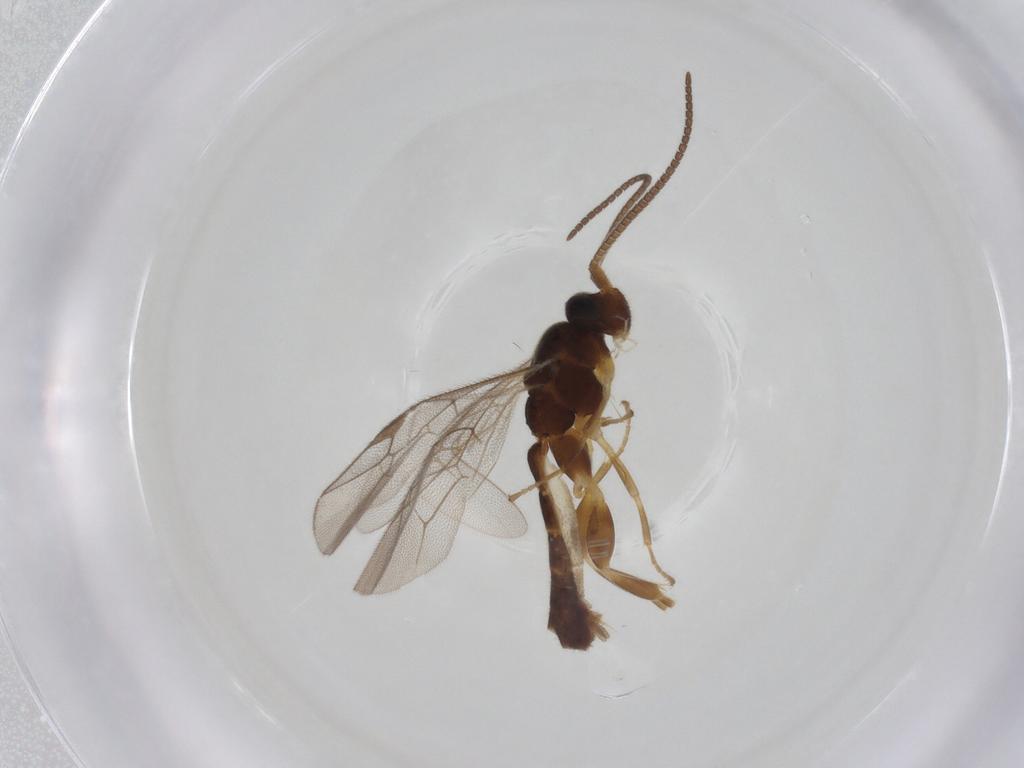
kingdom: Animalia
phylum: Arthropoda
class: Insecta
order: Hymenoptera
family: Ichneumonidae
